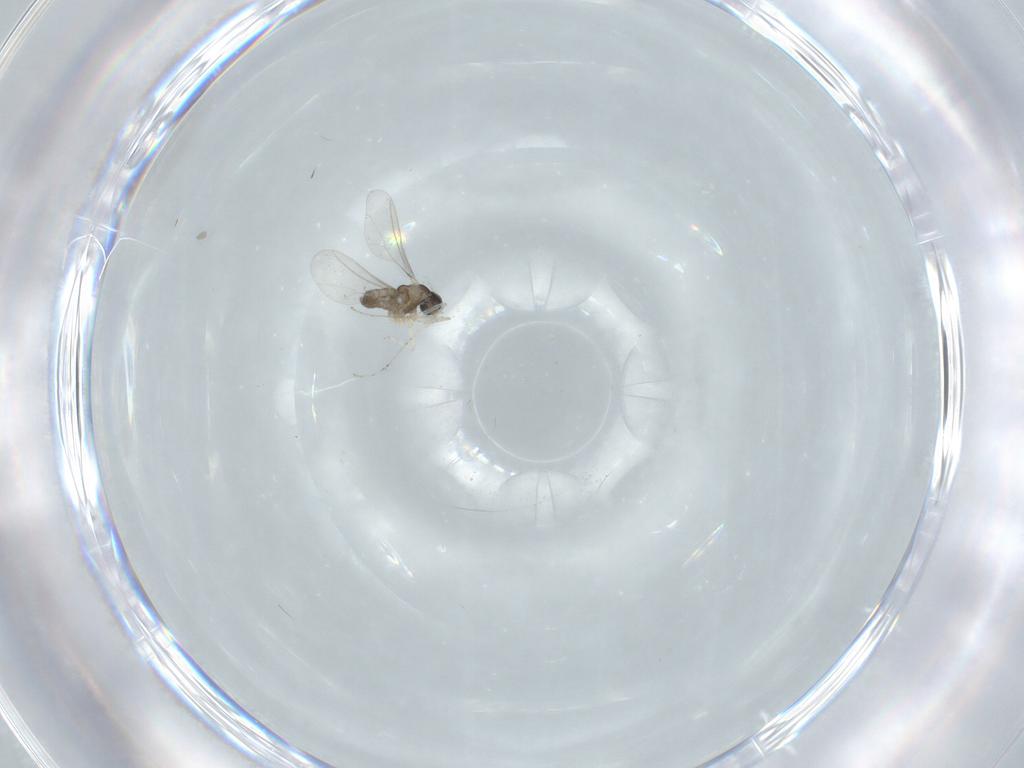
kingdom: Animalia
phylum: Arthropoda
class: Insecta
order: Diptera
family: Cecidomyiidae
